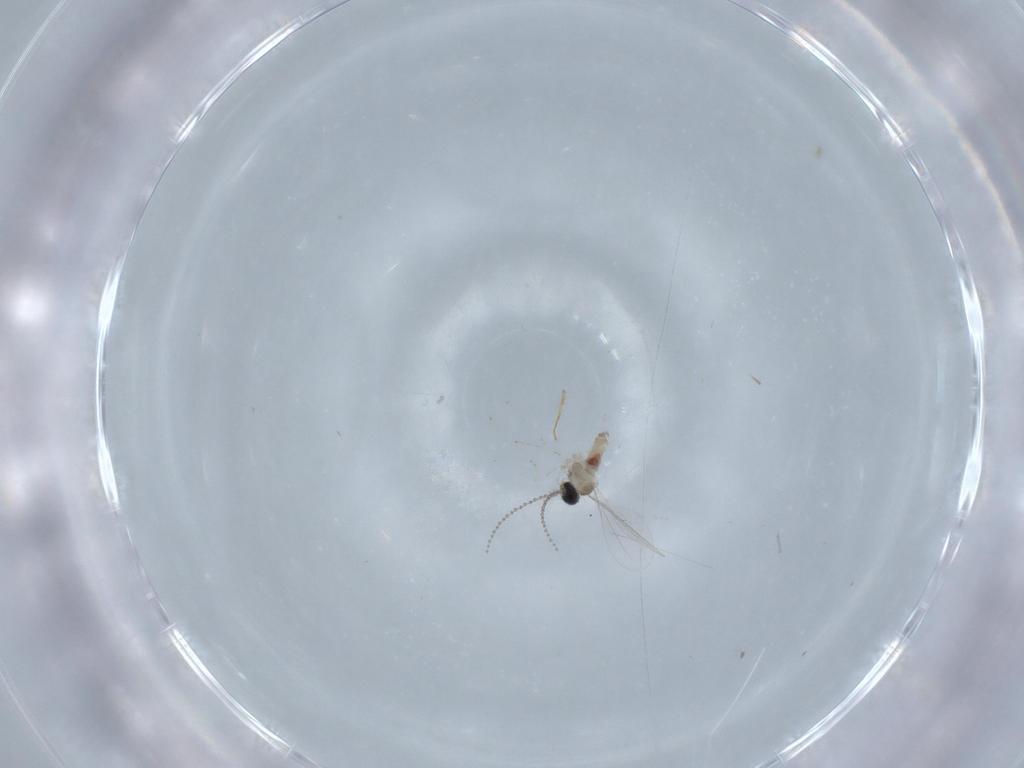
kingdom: Animalia
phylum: Arthropoda
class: Insecta
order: Diptera
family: Cecidomyiidae
